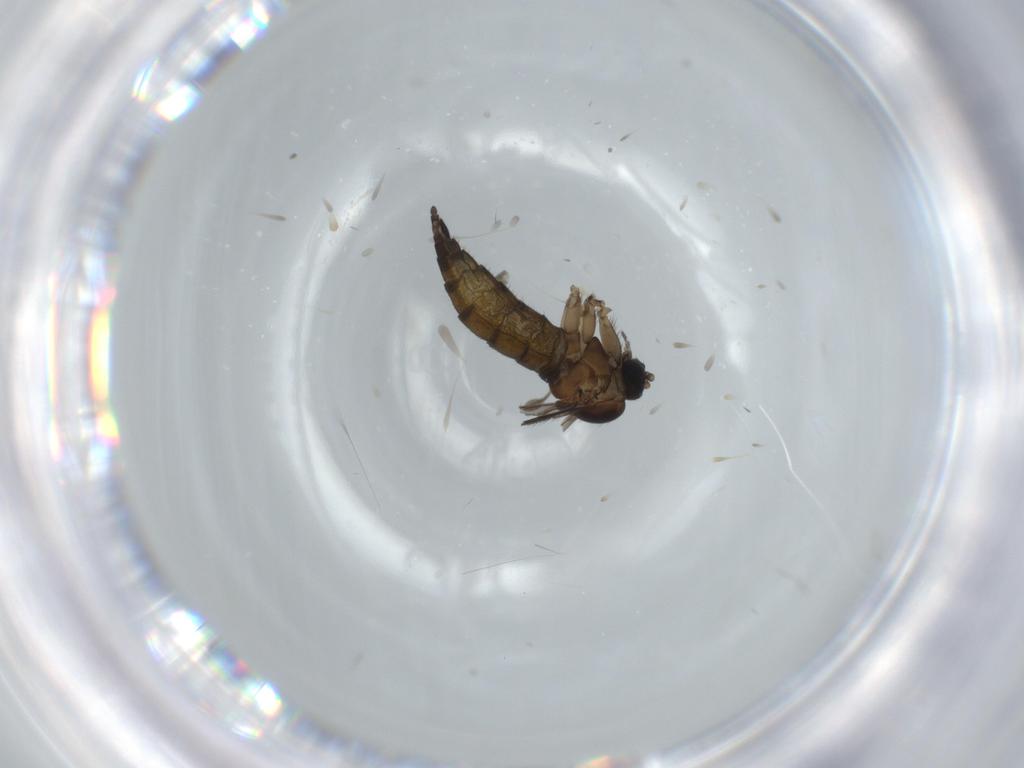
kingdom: Animalia
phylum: Arthropoda
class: Insecta
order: Diptera
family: Sciaridae
